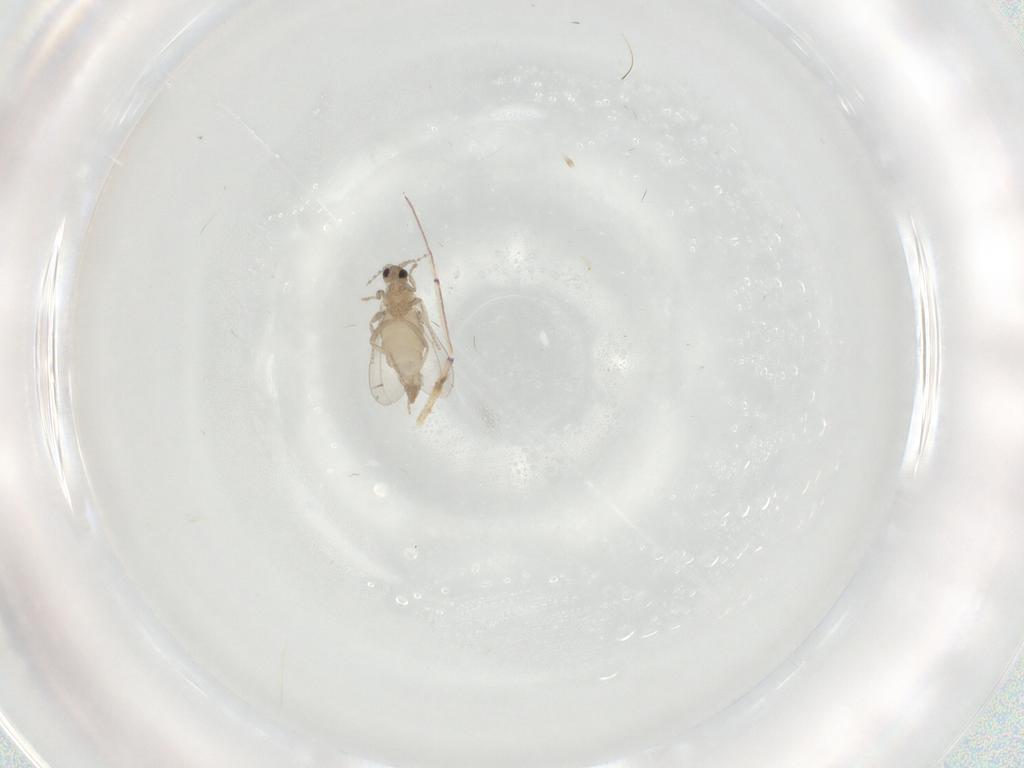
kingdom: Animalia
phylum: Arthropoda
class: Insecta
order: Diptera
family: Cecidomyiidae
